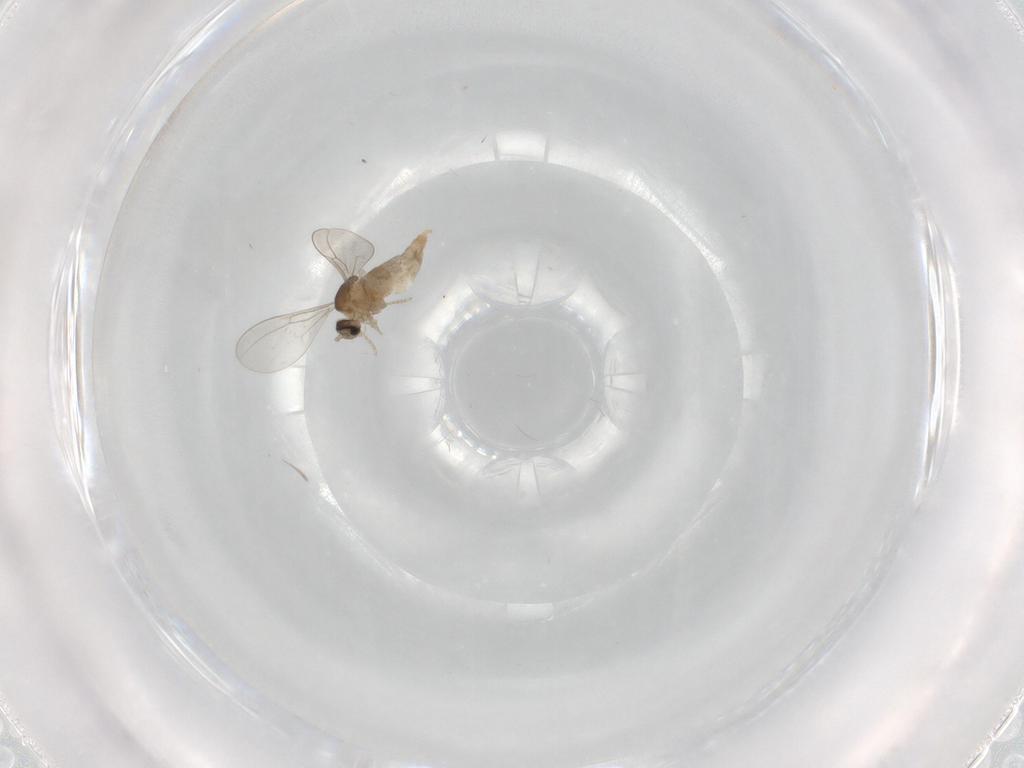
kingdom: Animalia
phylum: Arthropoda
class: Insecta
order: Diptera
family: Cecidomyiidae
